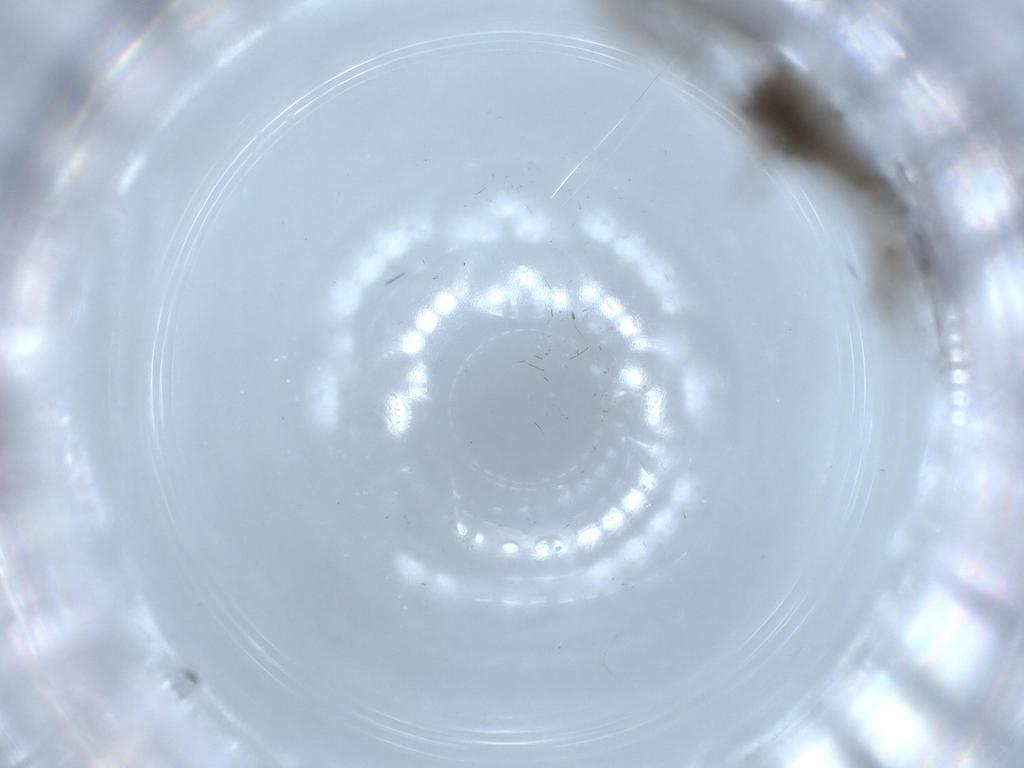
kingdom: Animalia
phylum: Arthropoda
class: Insecta
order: Diptera
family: Sciaridae
